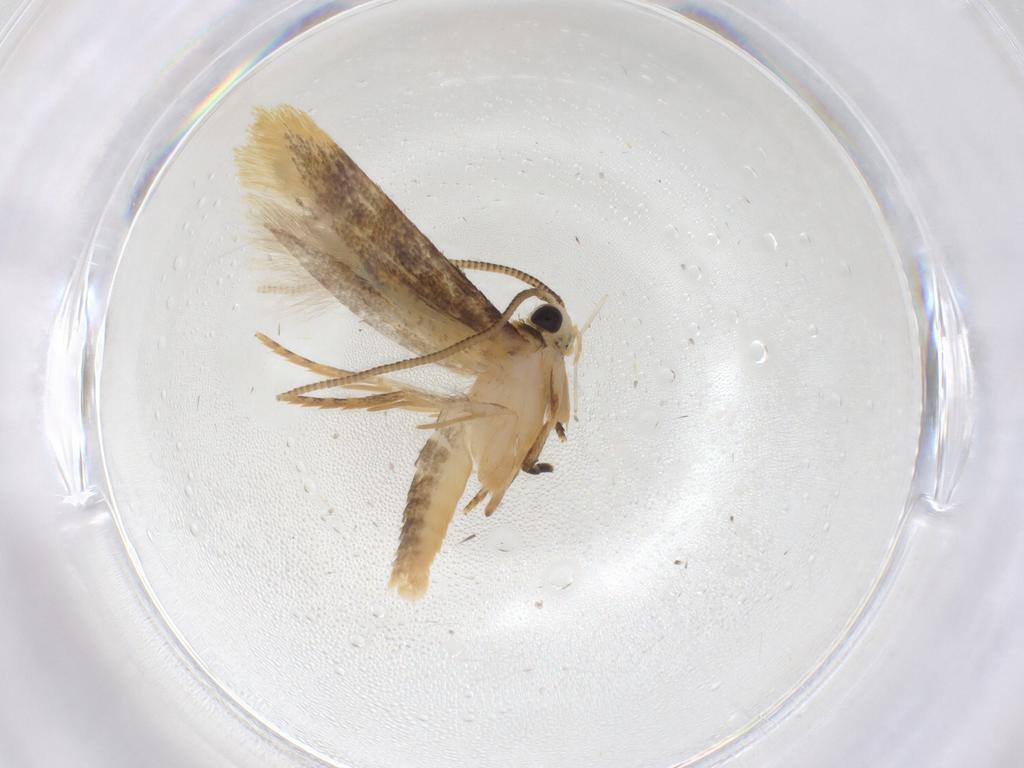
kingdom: Animalia
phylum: Arthropoda
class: Insecta
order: Lepidoptera
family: Tineidae
